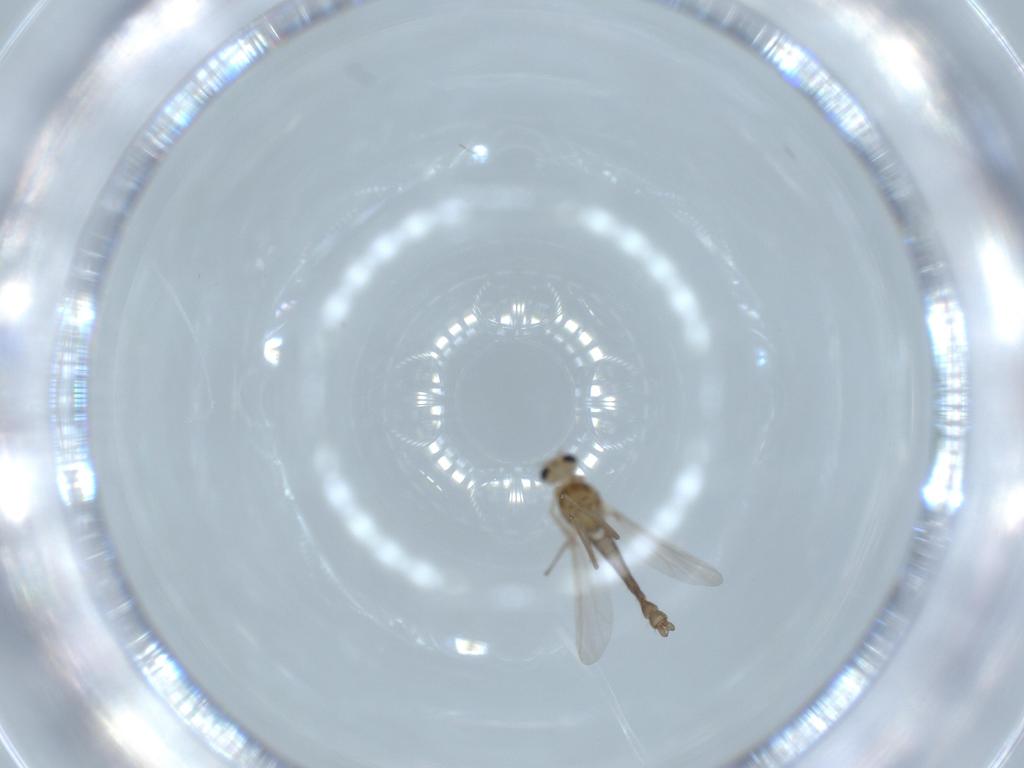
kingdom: Animalia
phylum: Arthropoda
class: Insecta
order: Diptera
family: Chironomidae
